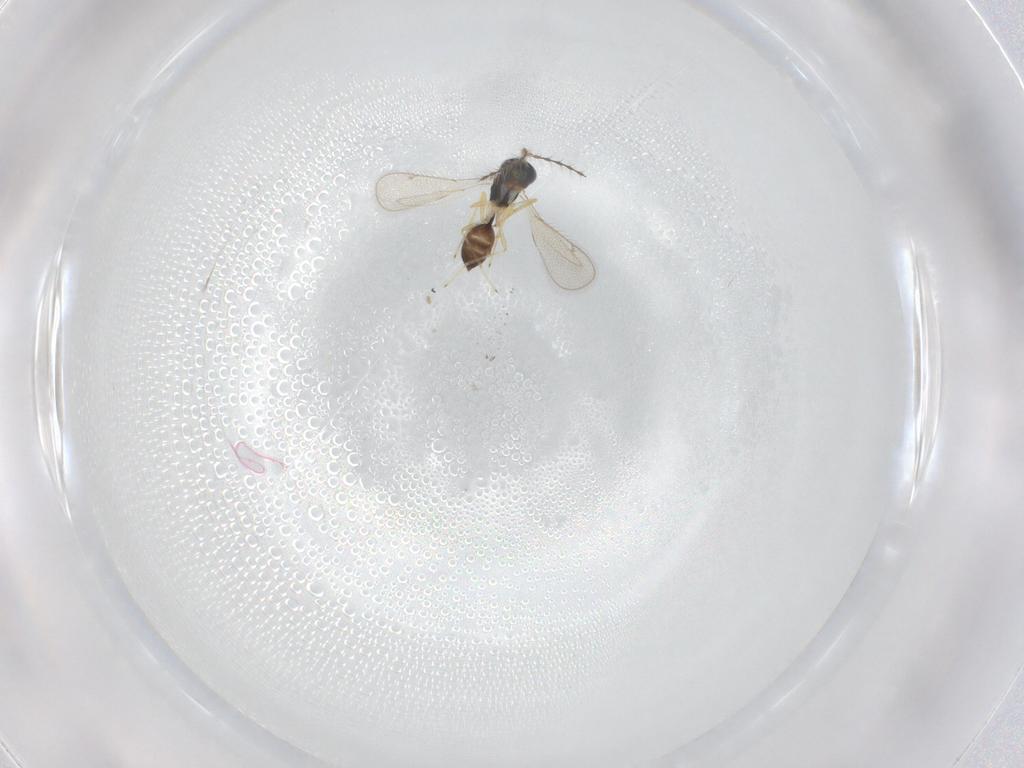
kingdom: Animalia
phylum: Arthropoda
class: Insecta
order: Hymenoptera
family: Diparidae
